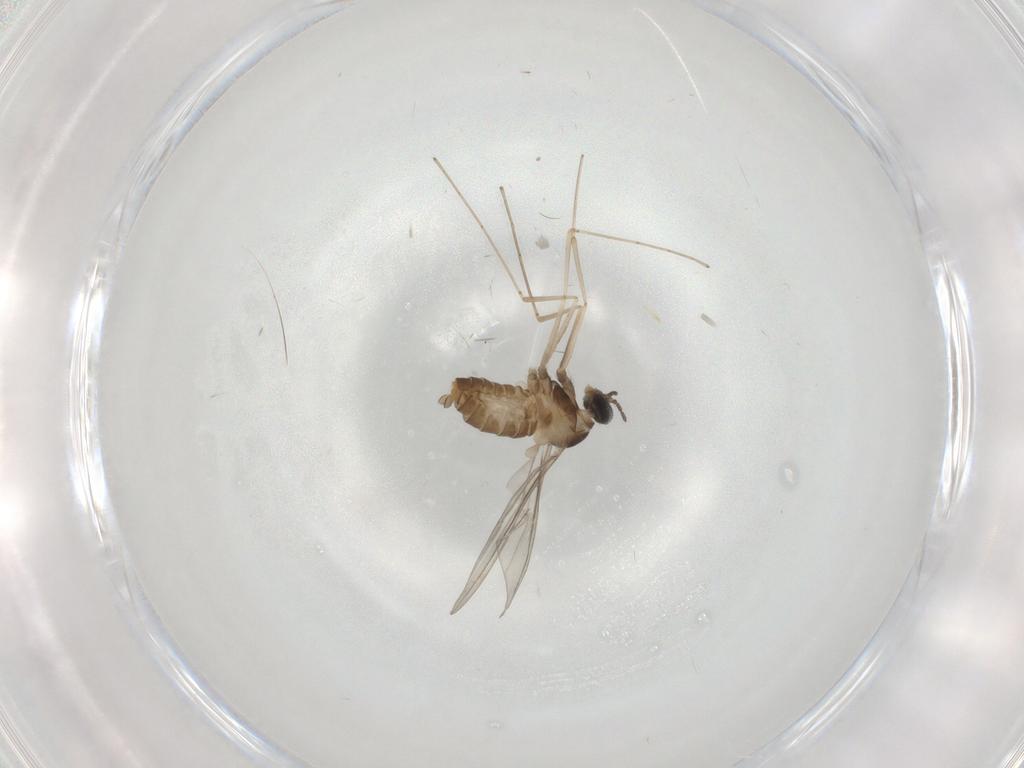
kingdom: Animalia
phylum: Arthropoda
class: Insecta
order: Diptera
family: Cecidomyiidae
